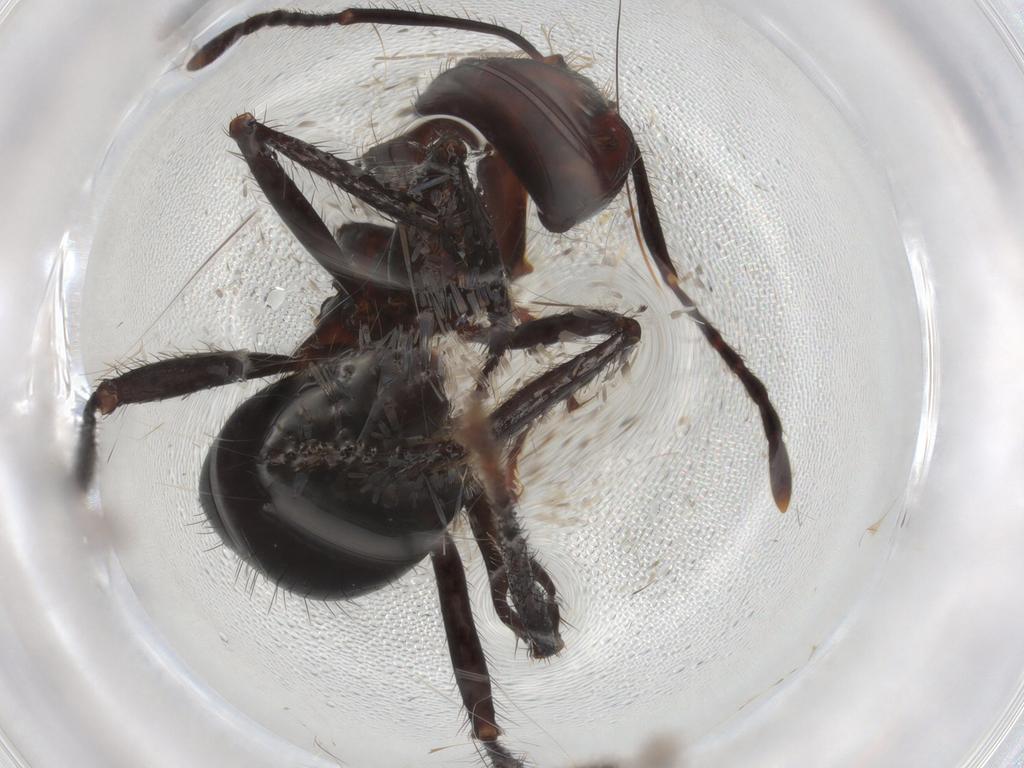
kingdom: Animalia
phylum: Arthropoda
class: Insecta
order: Hymenoptera
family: Formicidae
